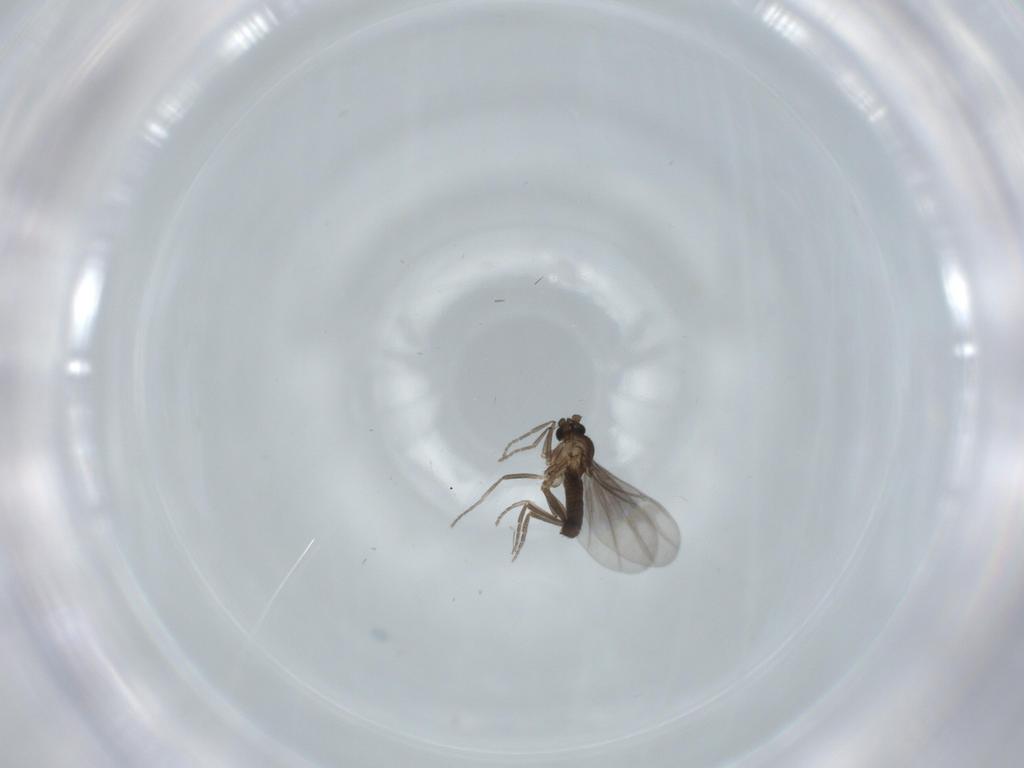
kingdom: Animalia
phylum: Arthropoda
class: Insecta
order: Diptera
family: Phoridae
